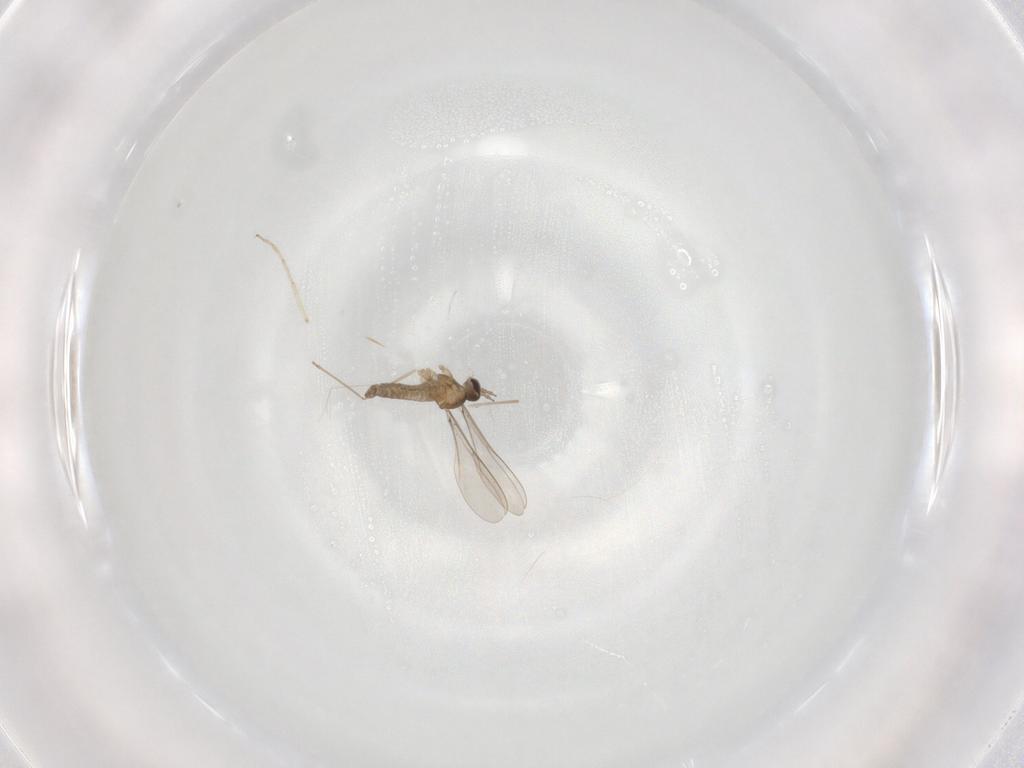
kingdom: Animalia
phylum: Arthropoda
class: Insecta
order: Diptera
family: Cecidomyiidae
